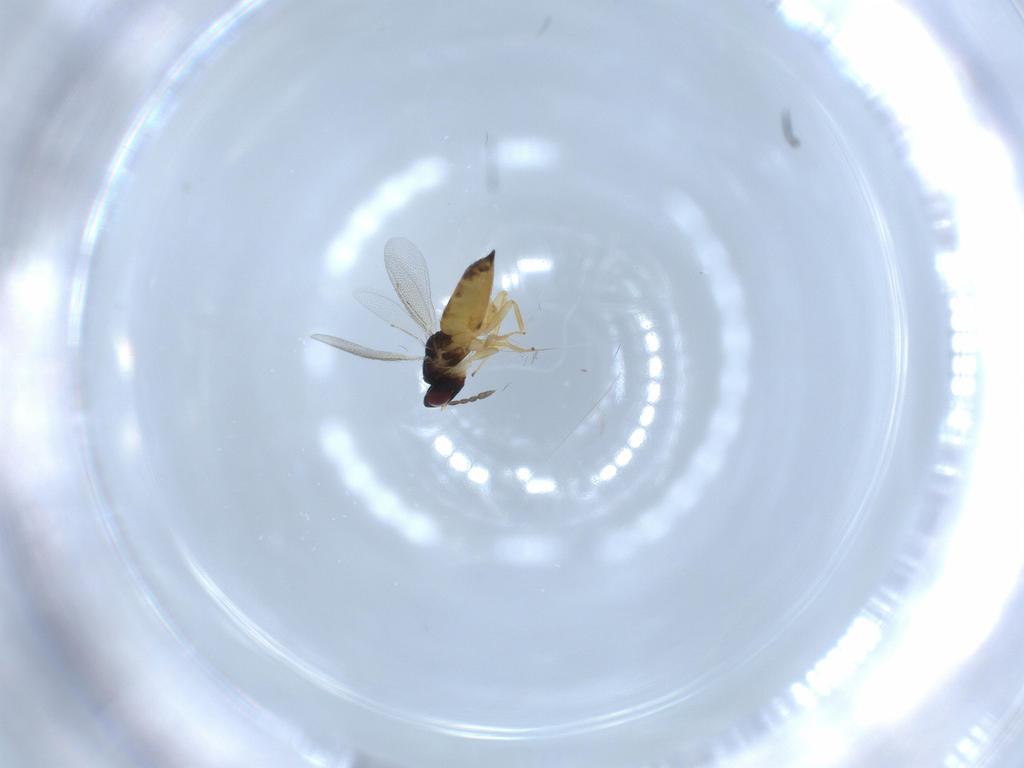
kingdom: Animalia
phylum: Arthropoda
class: Insecta
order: Hymenoptera
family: Eulophidae
